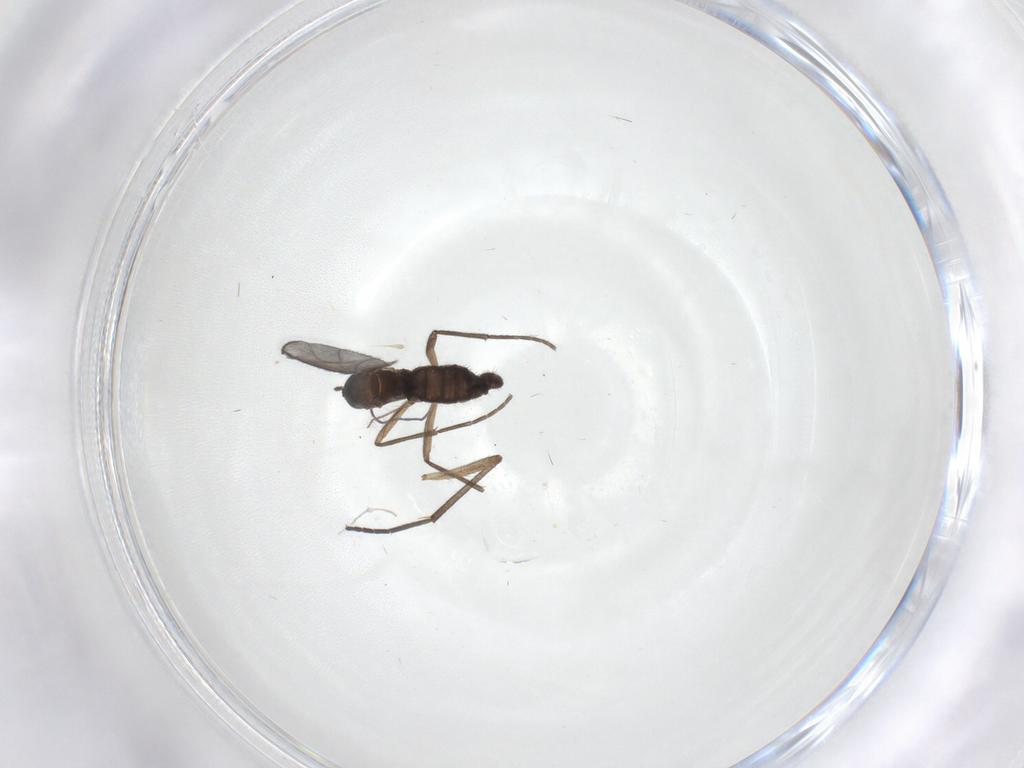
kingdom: Animalia
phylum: Arthropoda
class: Insecta
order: Diptera
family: Sciaridae
